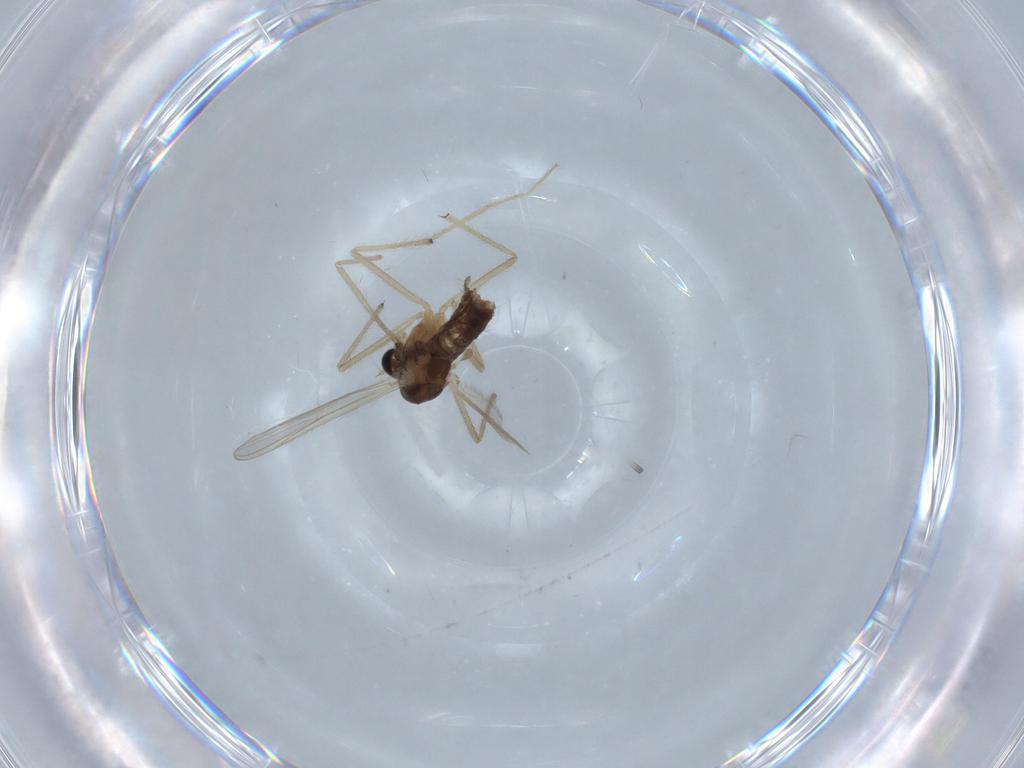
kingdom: Animalia
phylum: Arthropoda
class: Insecta
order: Diptera
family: Chironomidae
